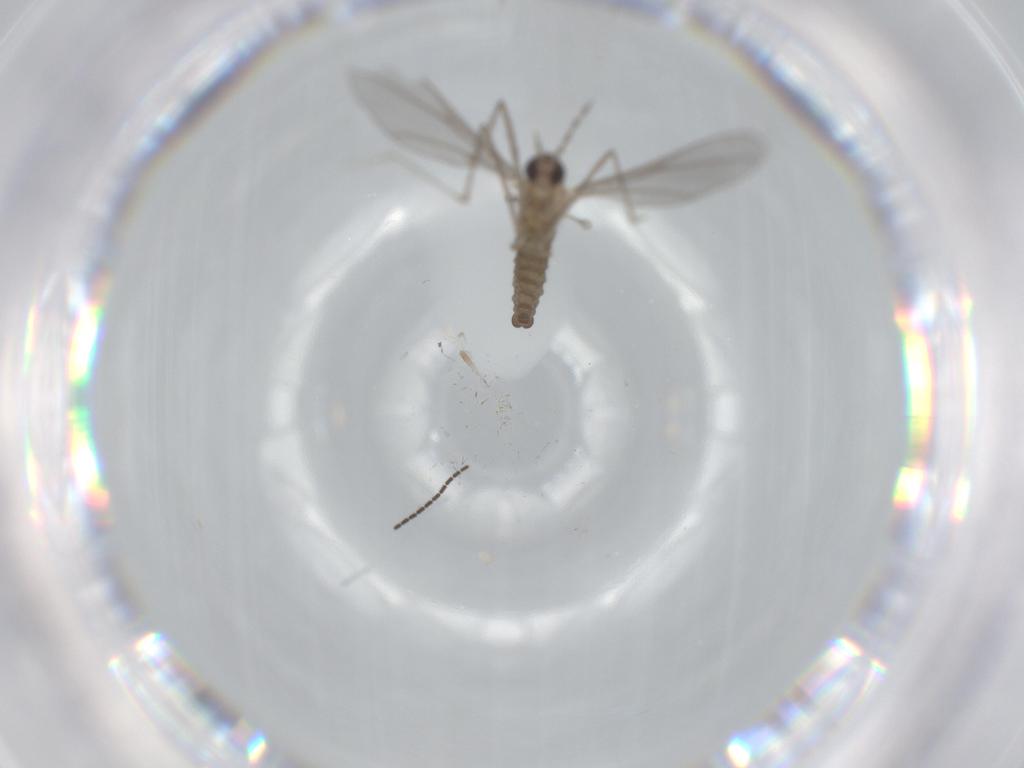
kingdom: Animalia
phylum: Arthropoda
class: Insecta
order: Diptera
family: Cecidomyiidae
